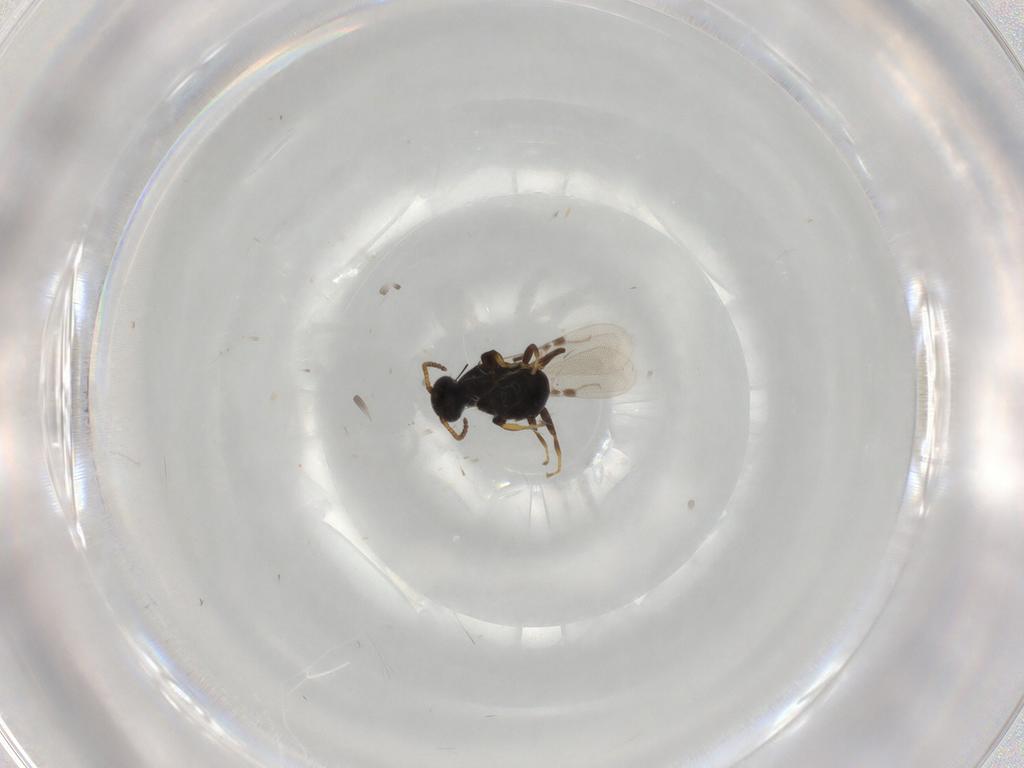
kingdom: Animalia
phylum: Arthropoda
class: Insecta
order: Hymenoptera
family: Bethylidae
